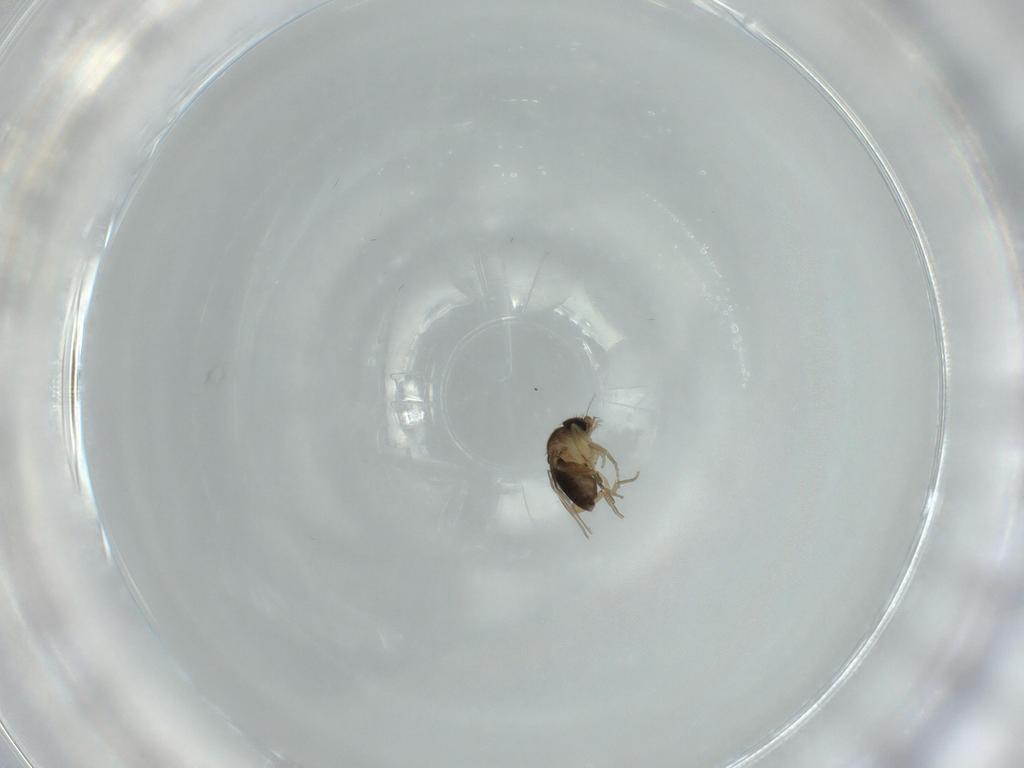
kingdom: Animalia
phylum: Arthropoda
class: Insecta
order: Diptera
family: Phoridae
